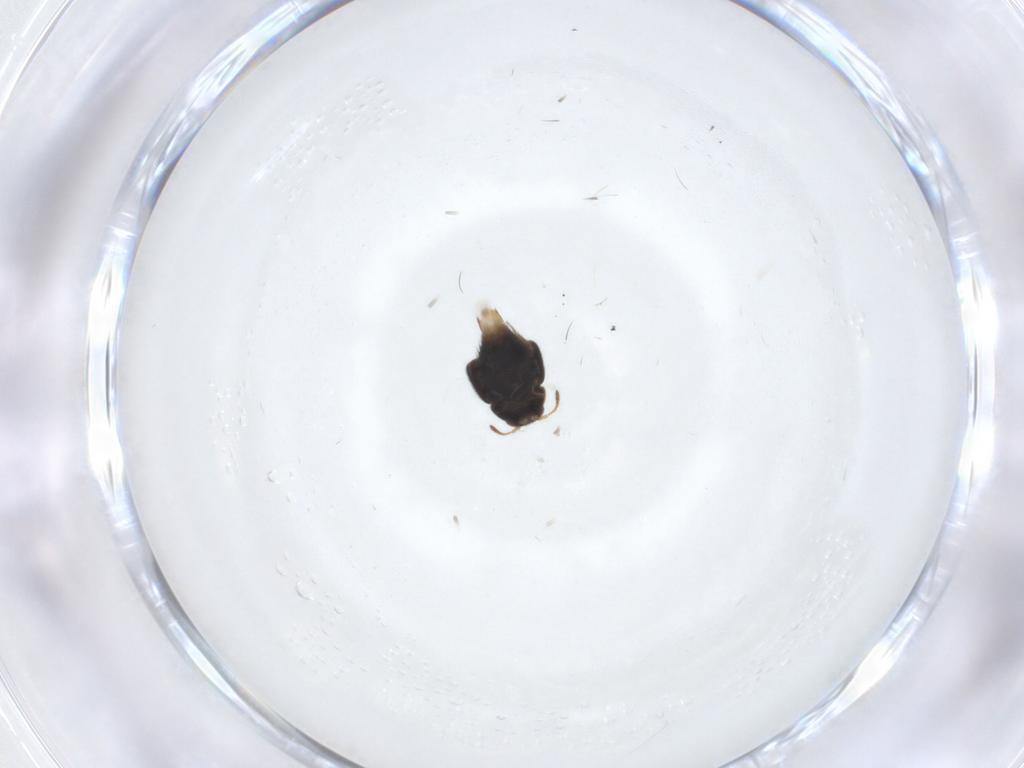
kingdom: Animalia
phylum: Arthropoda
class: Insecta
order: Coleoptera
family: Staphylinidae
